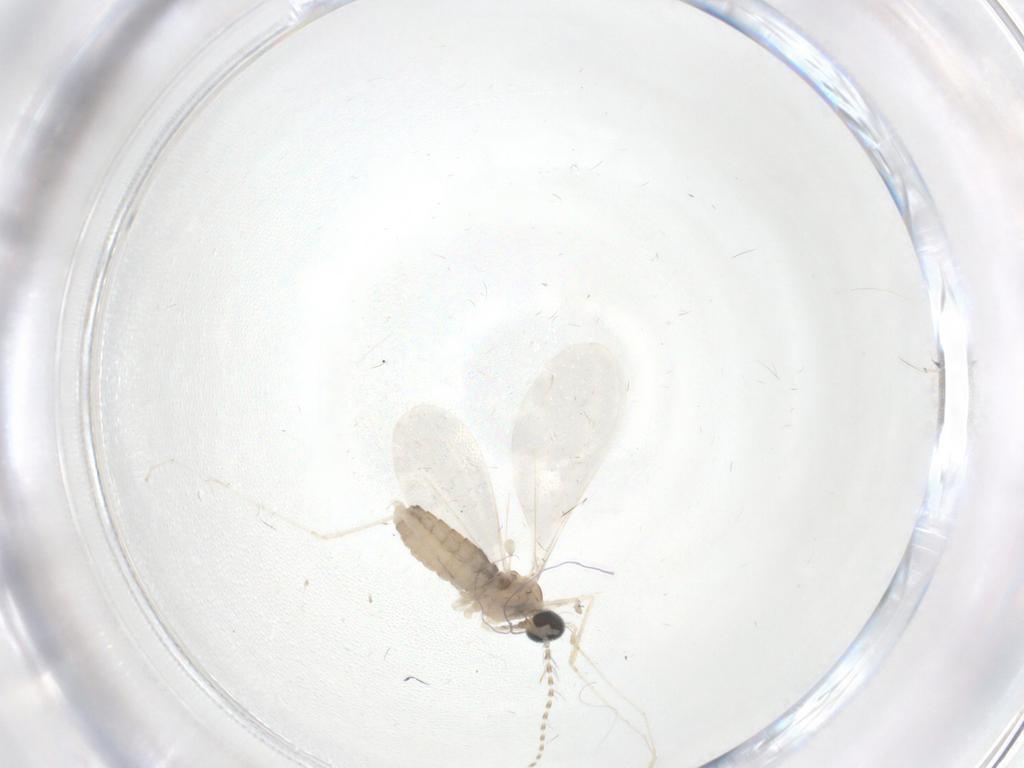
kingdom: Animalia
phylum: Arthropoda
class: Insecta
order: Diptera
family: Cecidomyiidae
